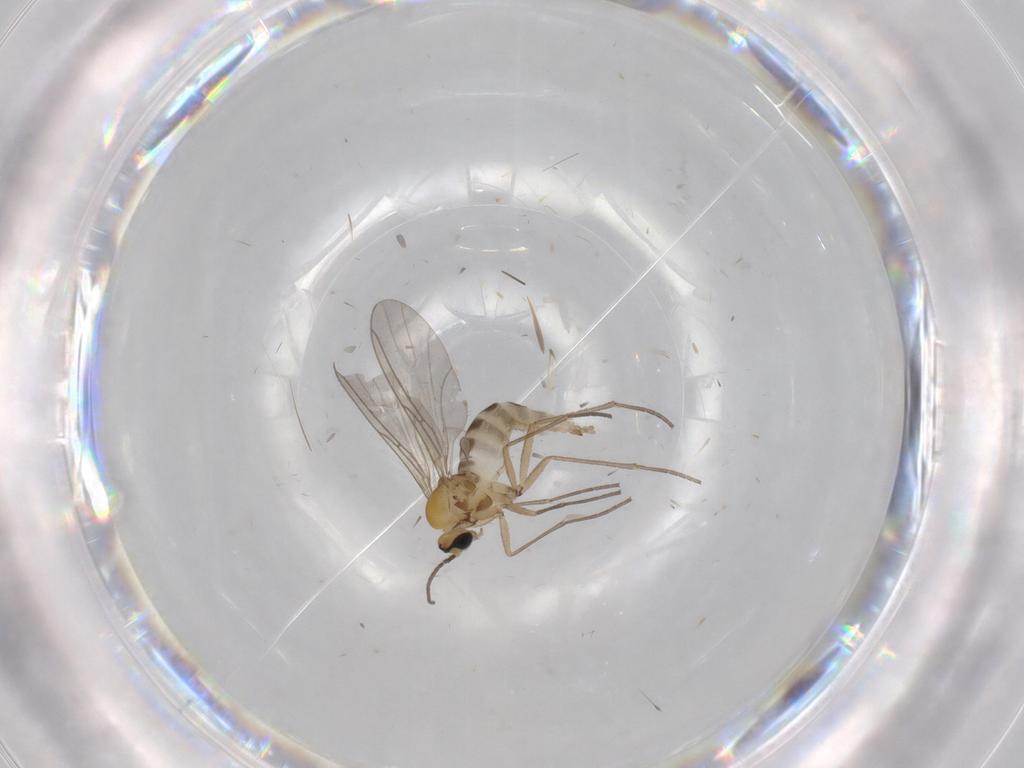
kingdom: Animalia
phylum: Arthropoda
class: Insecta
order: Diptera
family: Sciaridae
